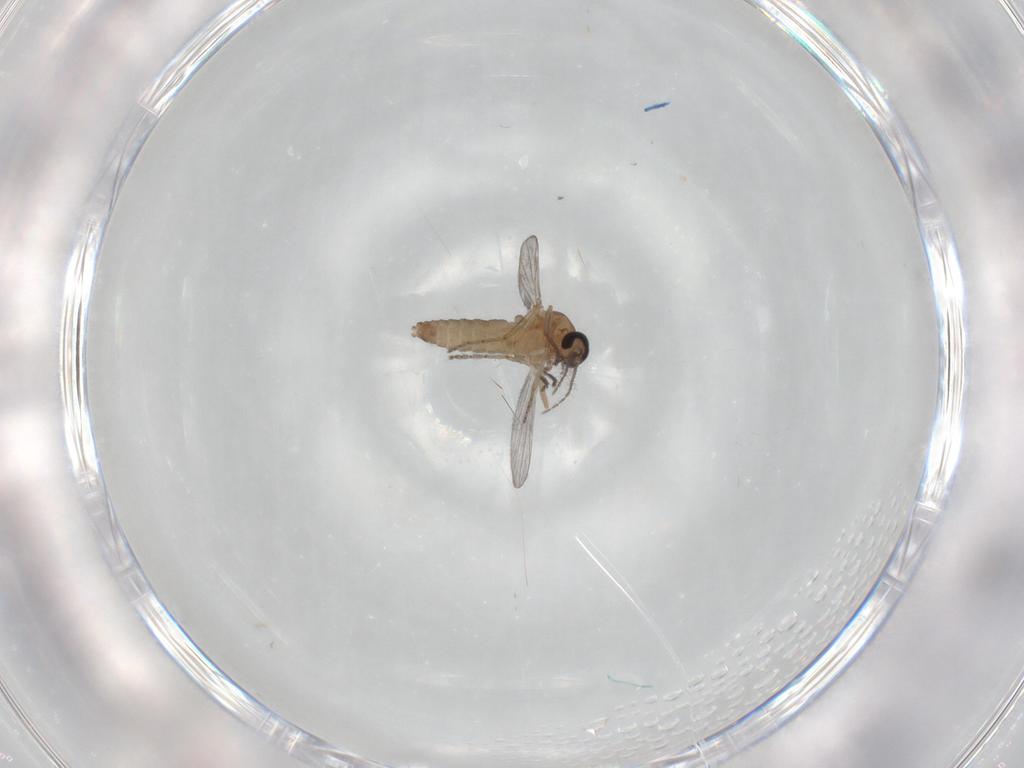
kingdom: Animalia
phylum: Arthropoda
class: Insecta
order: Diptera
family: Ceratopogonidae
